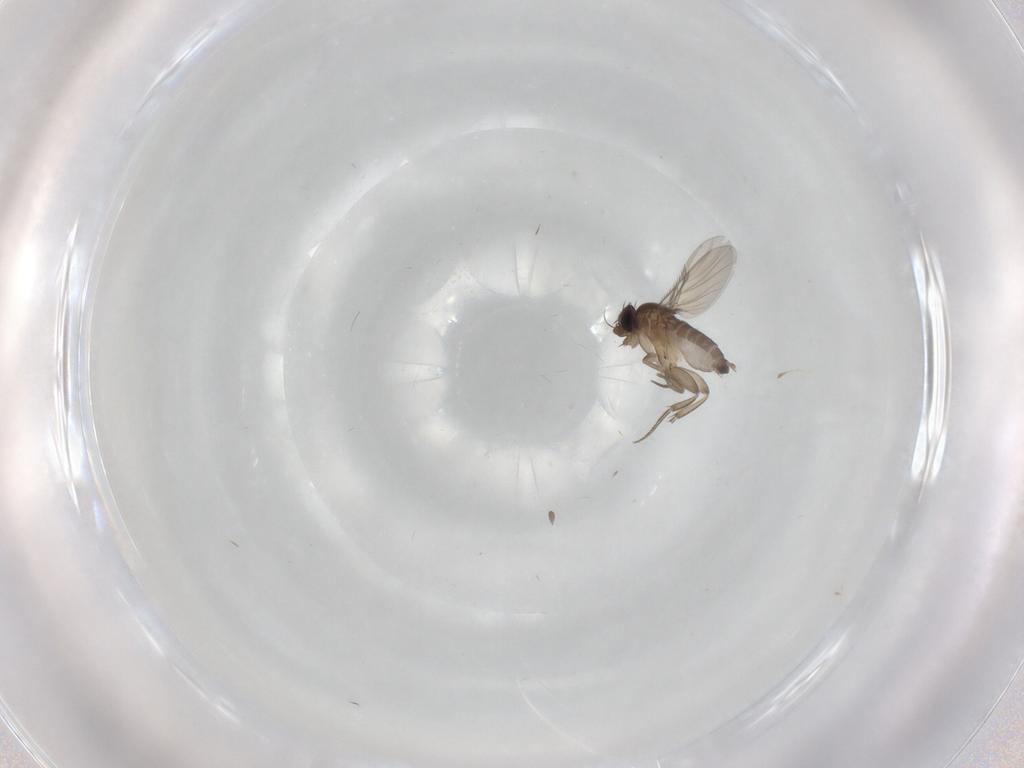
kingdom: Animalia
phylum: Arthropoda
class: Insecta
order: Diptera
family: Phoridae
